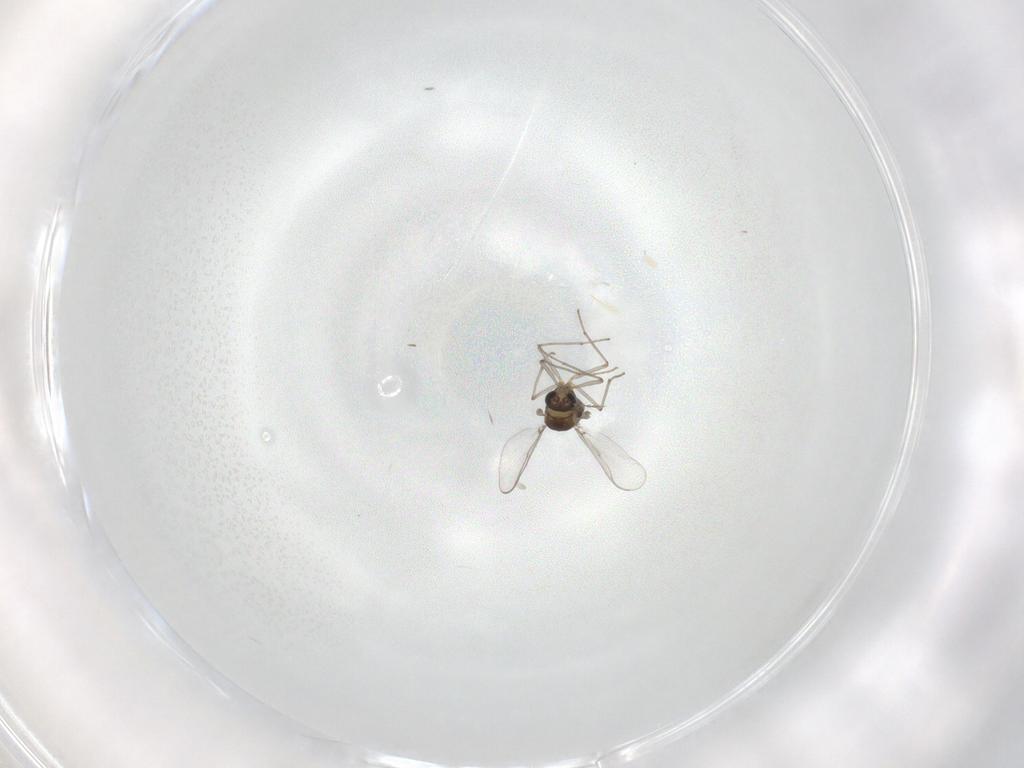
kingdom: Animalia
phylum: Arthropoda
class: Insecta
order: Diptera
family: Chironomidae
